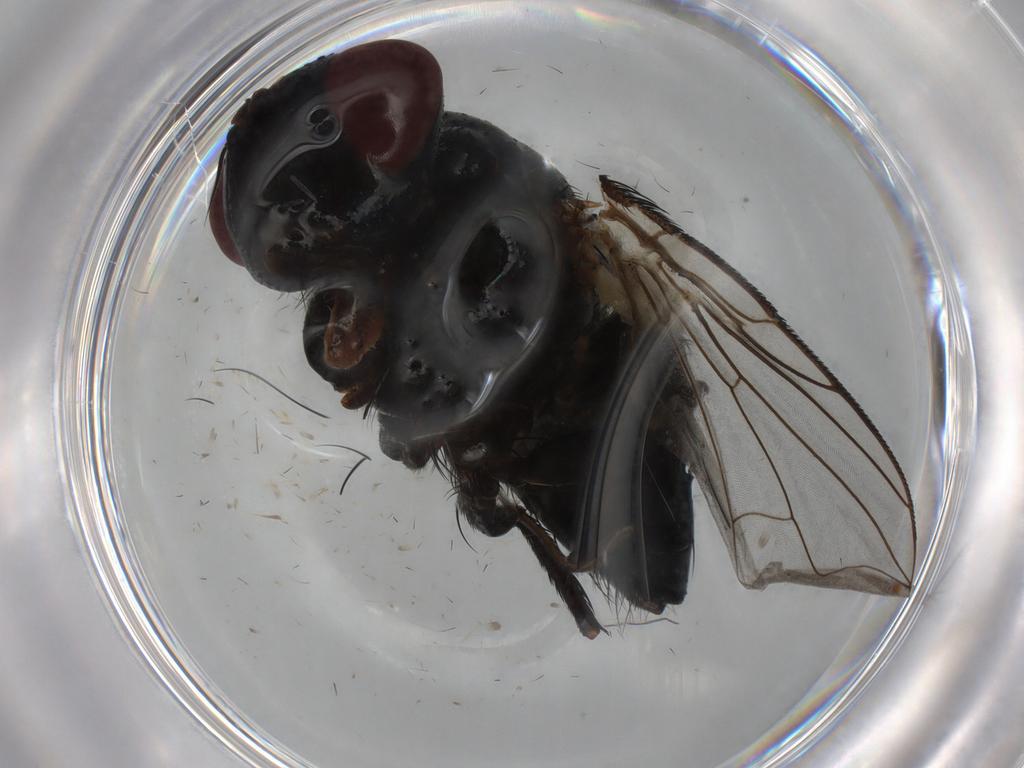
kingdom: Animalia
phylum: Arthropoda
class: Insecta
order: Diptera
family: Tachinidae
